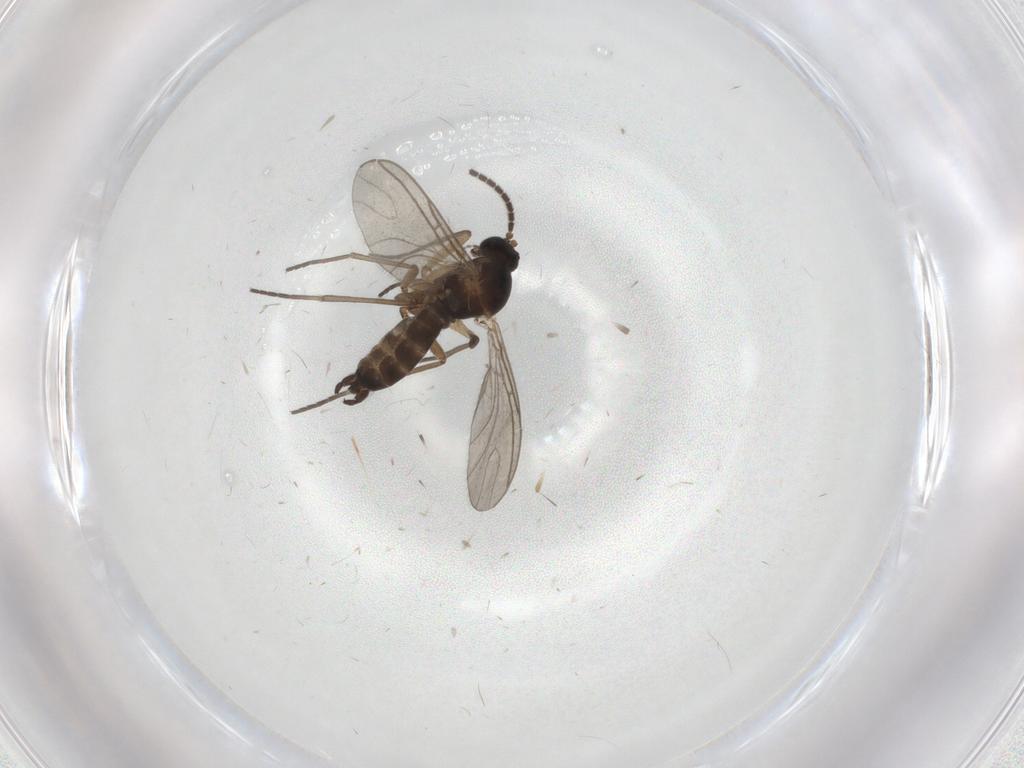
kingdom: Animalia
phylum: Arthropoda
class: Insecta
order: Diptera
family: Sciaridae
